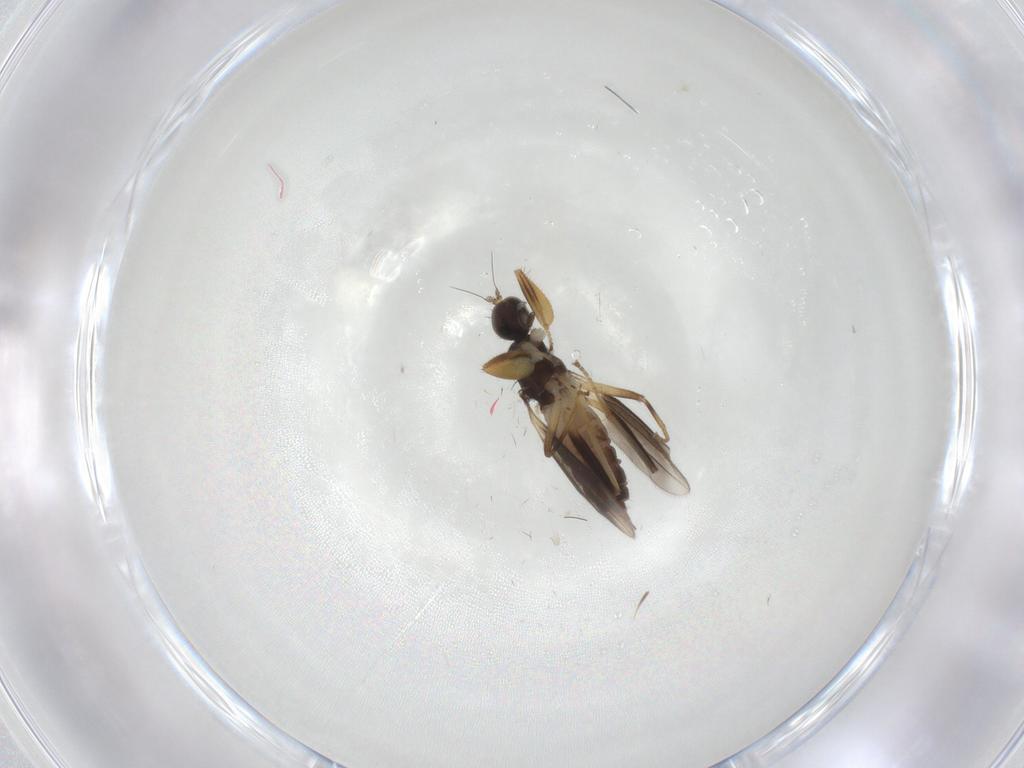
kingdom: Animalia
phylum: Arthropoda
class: Insecta
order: Diptera
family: Hybotidae
